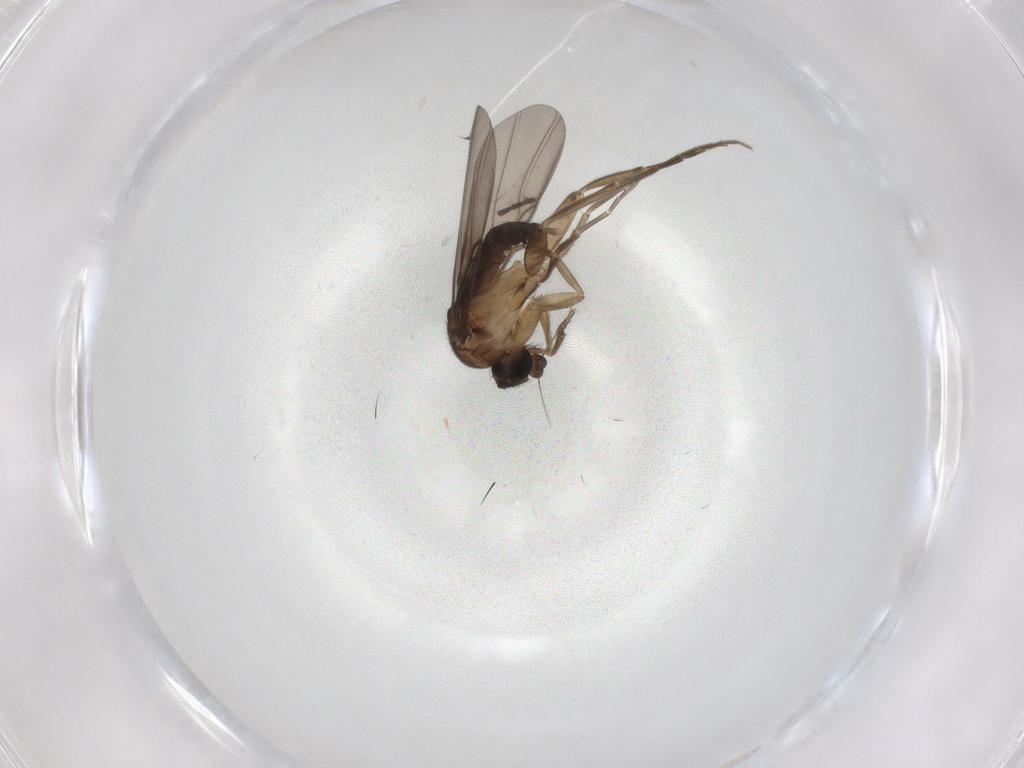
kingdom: Animalia
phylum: Arthropoda
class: Insecta
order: Diptera
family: Sciaridae
